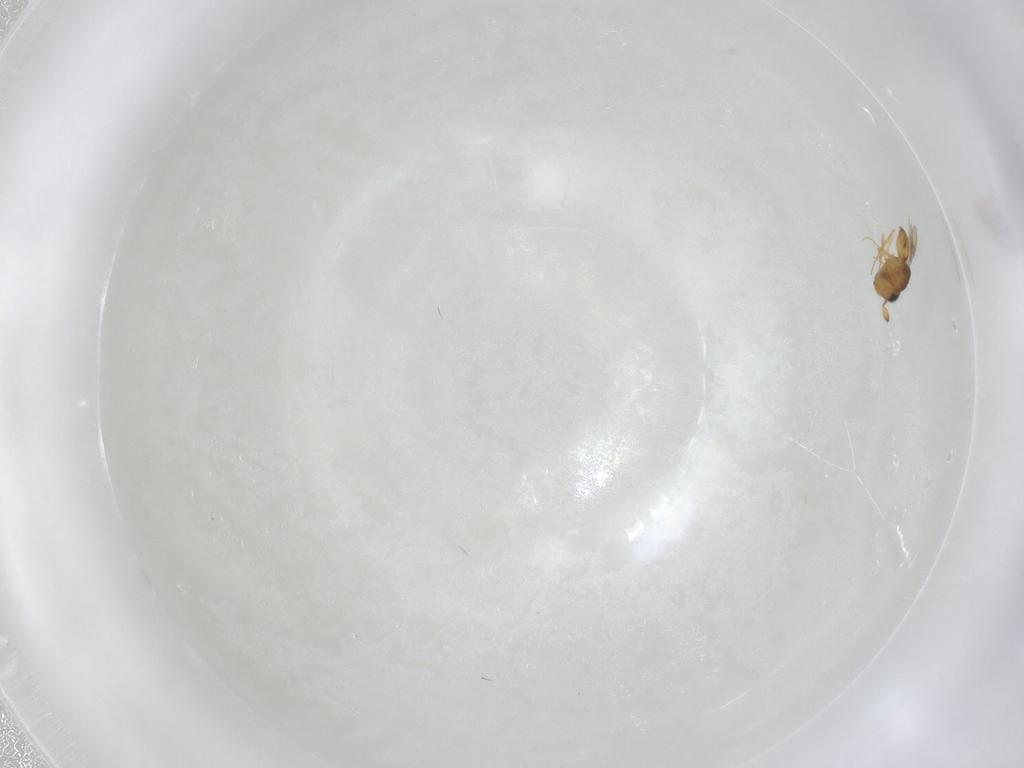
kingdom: Animalia
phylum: Arthropoda
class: Insecta
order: Hymenoptera
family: Scelionidae
